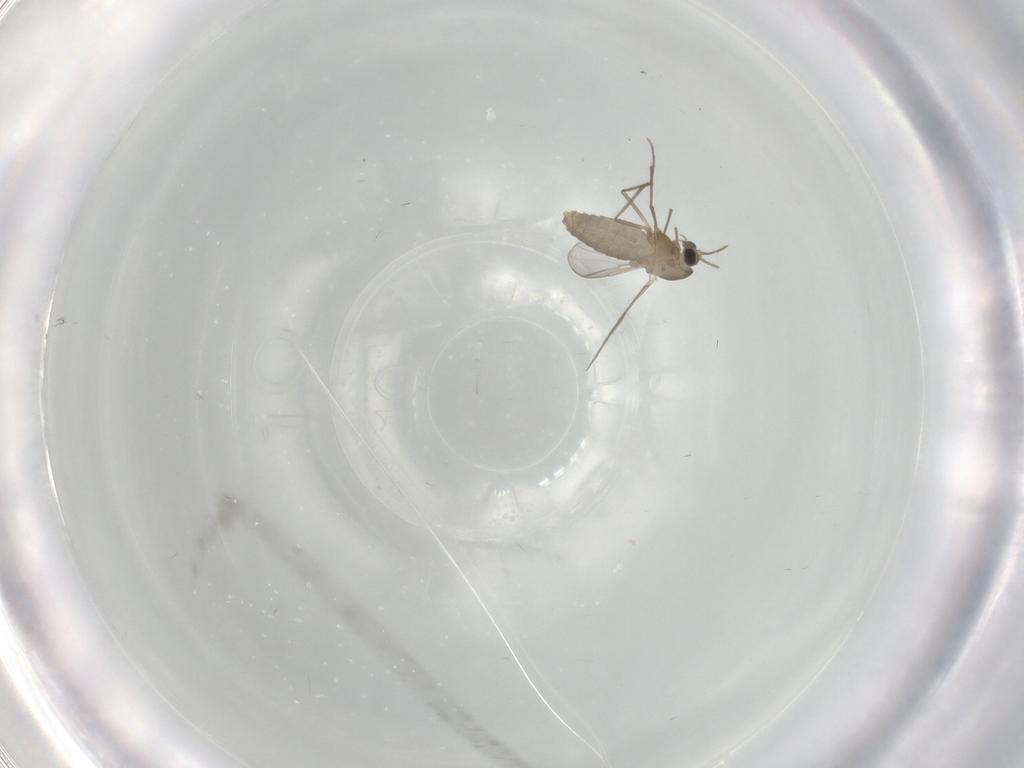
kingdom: Animalia
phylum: Arthropoda
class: Insecta
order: Diptera
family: Chironomidae
